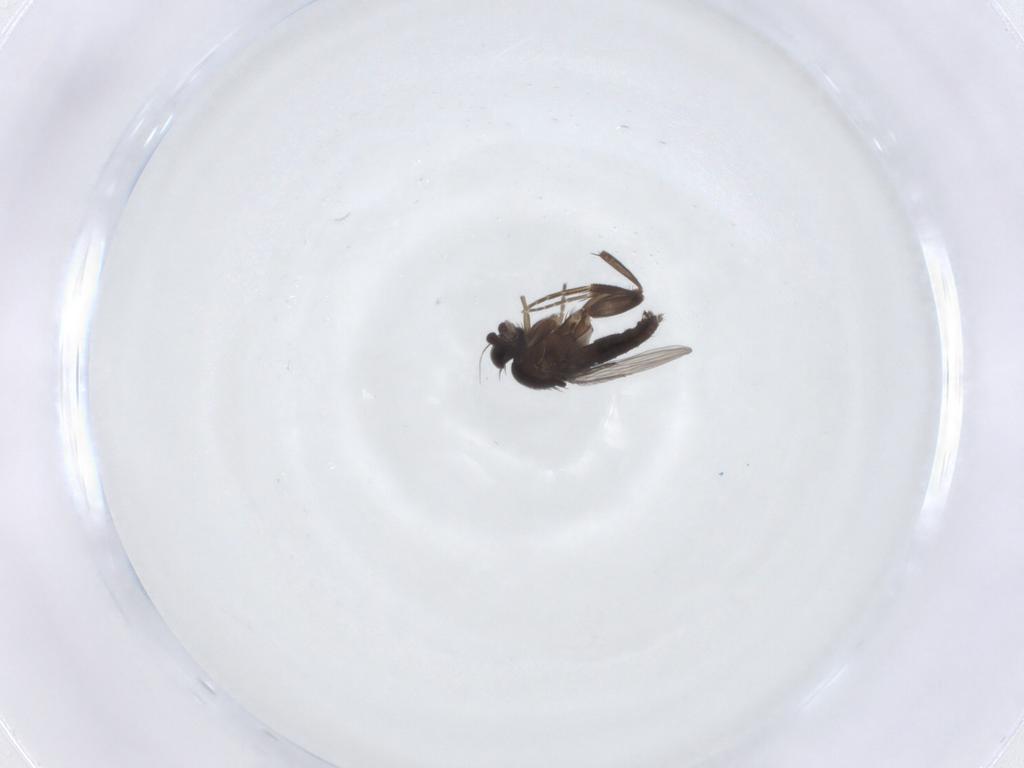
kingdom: Animalia
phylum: Arthropoda
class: Insecta
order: Diptera
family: Phoridae
